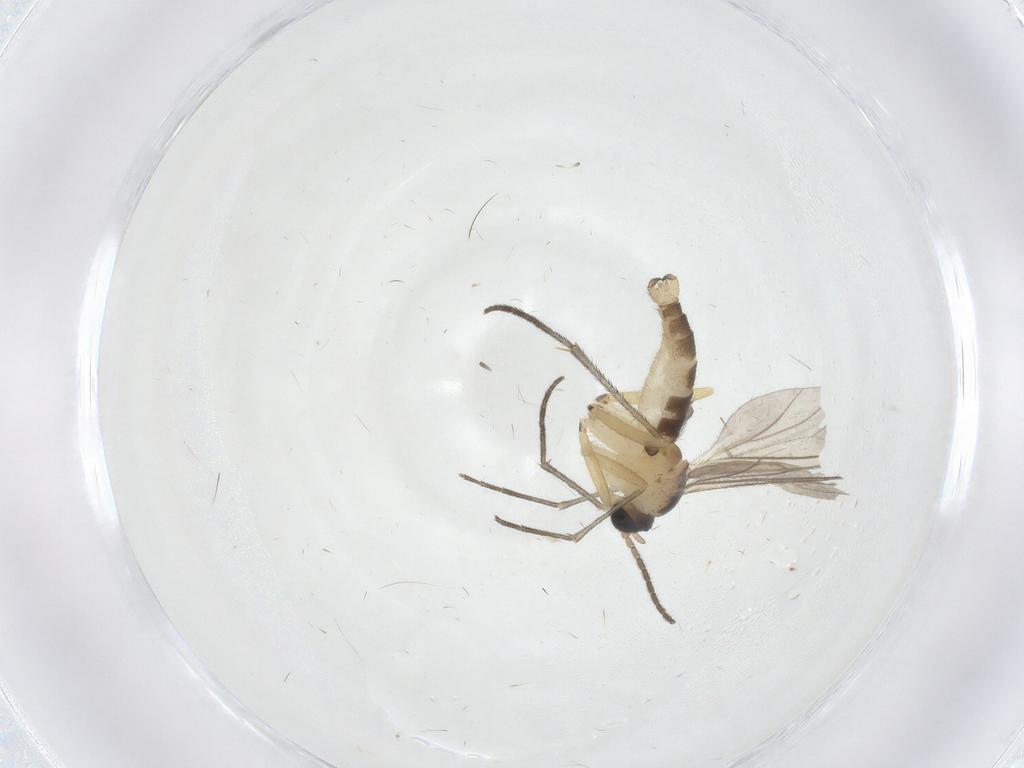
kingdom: Animalia
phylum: Arthropoda
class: Insecta
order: Diptera
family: Sciaridae
